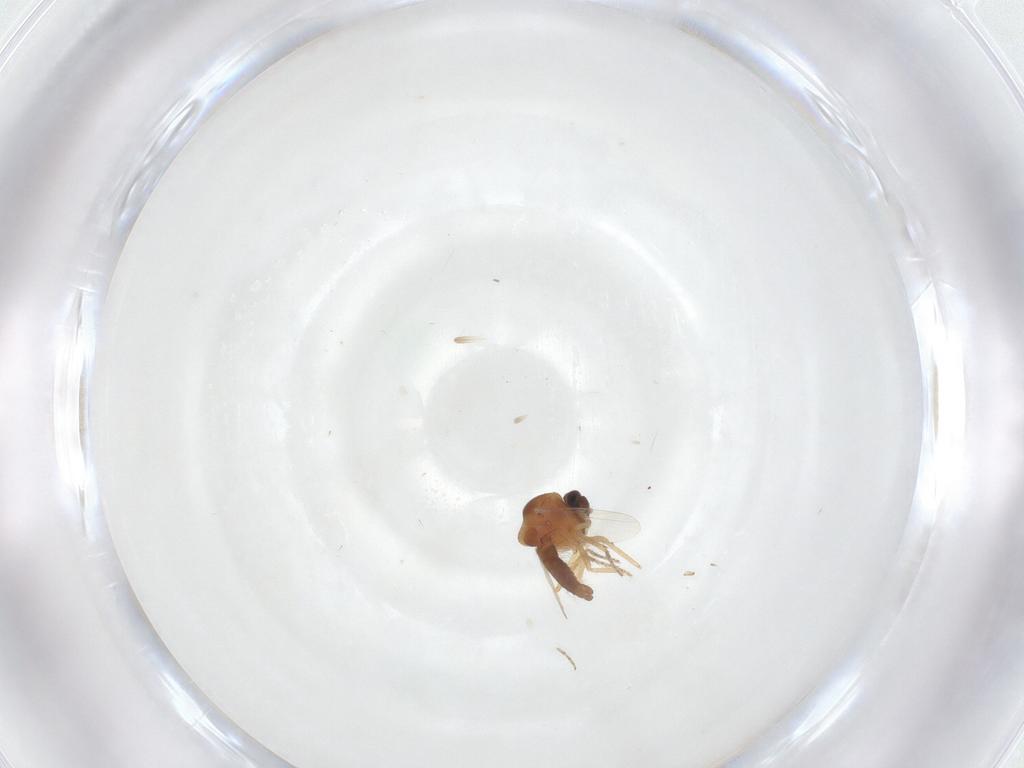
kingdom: Animalia
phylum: Arthropoda
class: Insecta
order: Diptera
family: Ceratopogonidae
